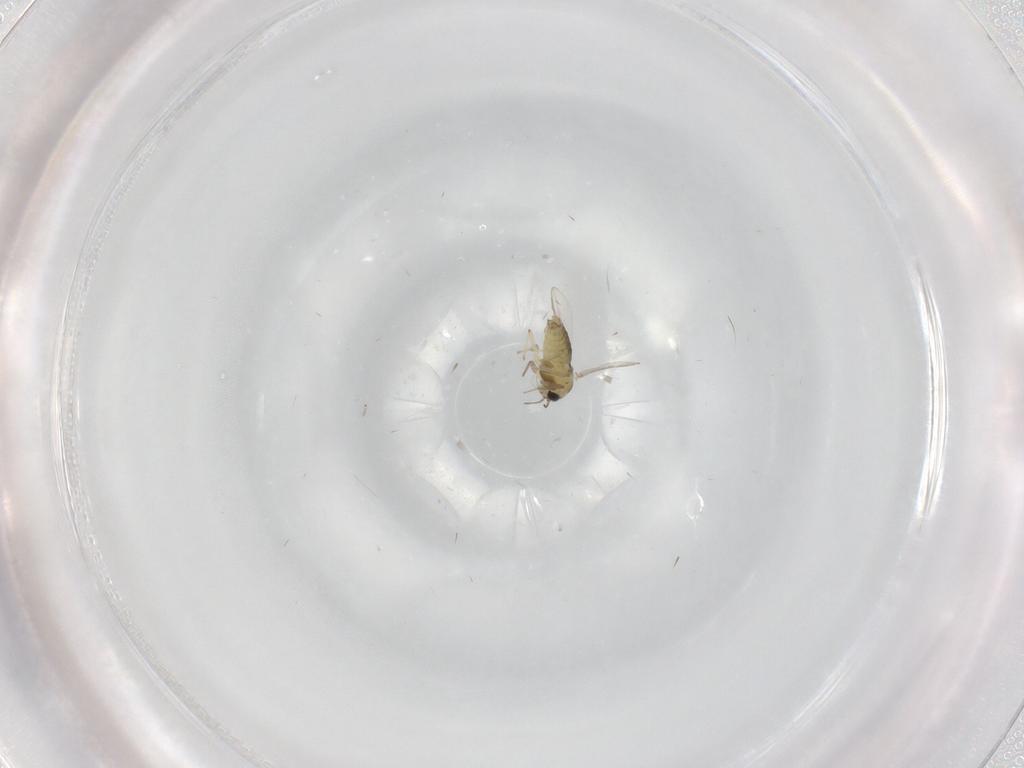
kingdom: Animalia
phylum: Arthropoda
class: Insecta
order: Diptera
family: Chironomidae
